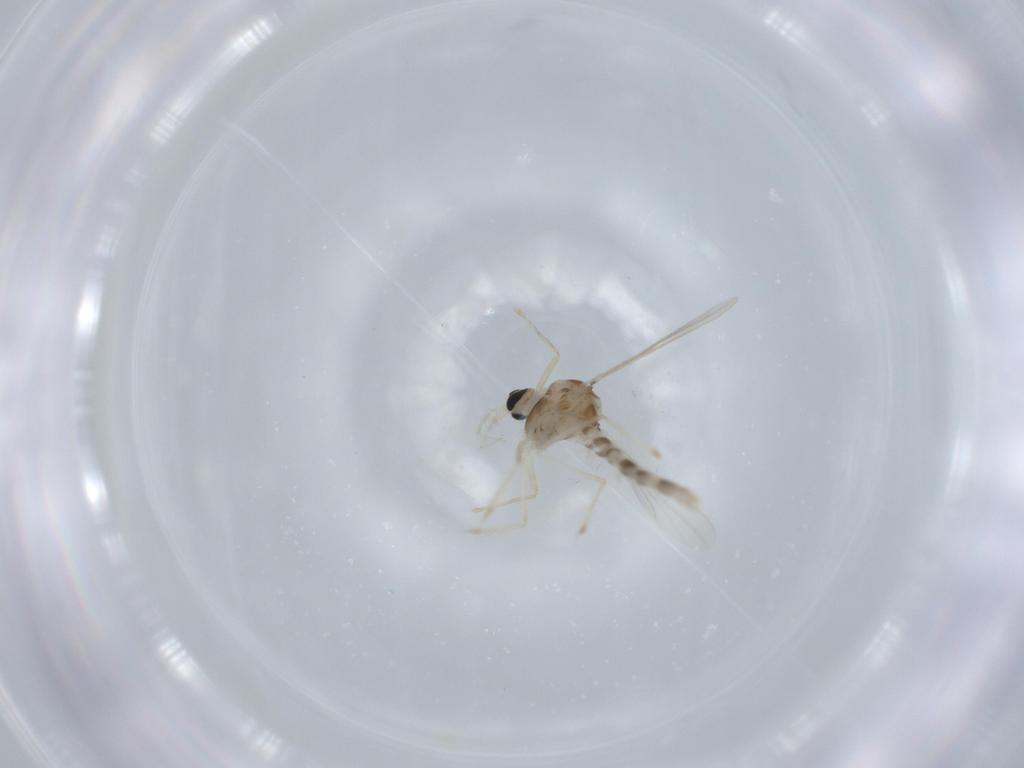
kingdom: Animalia
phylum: Arthropoda
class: Insecta
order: Diptera
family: Chironomidae
